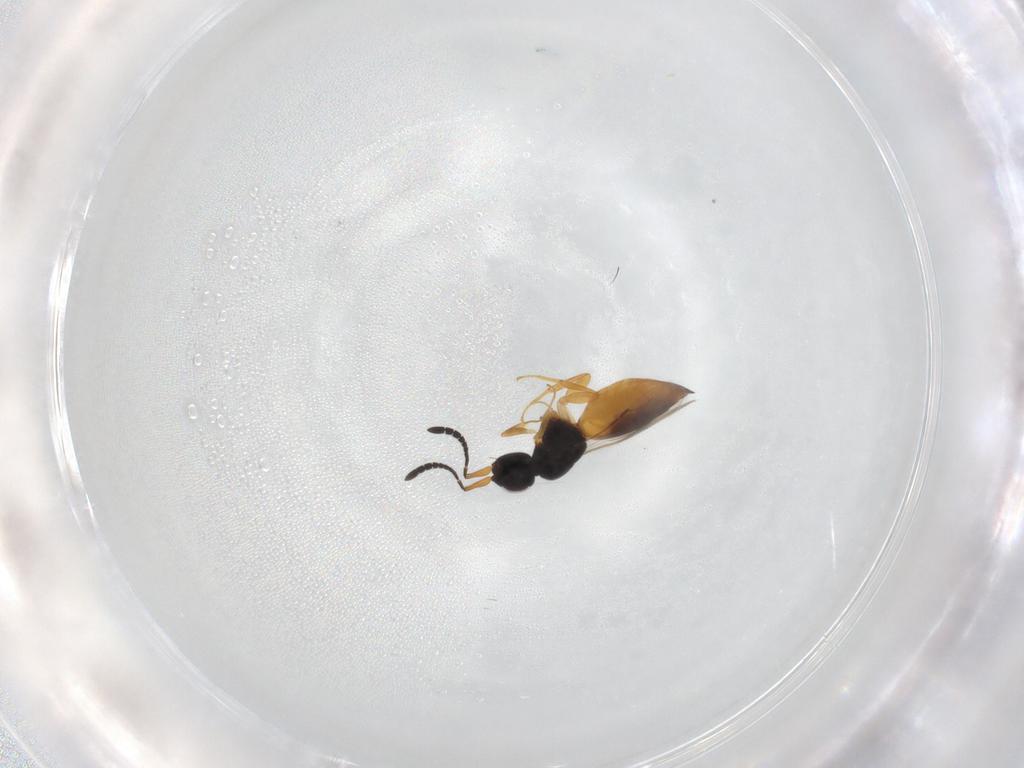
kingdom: Animalia
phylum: Arthropoda
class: Insecta
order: Hymenoptera
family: Ceraphronidae
